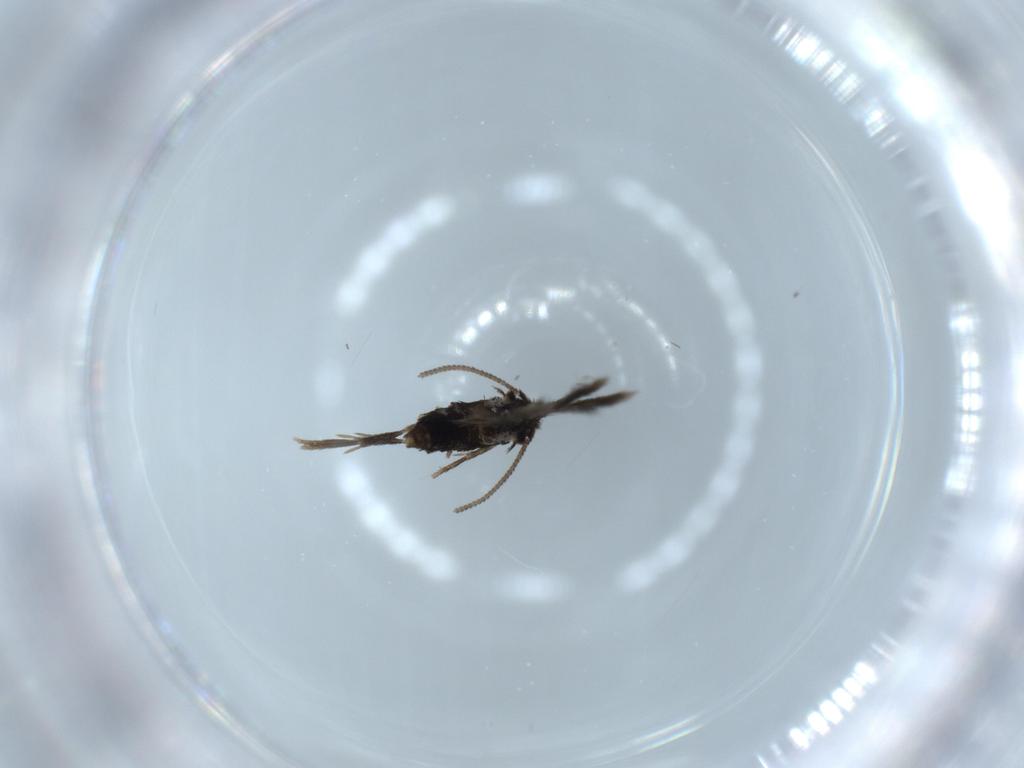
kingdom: Animalia
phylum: Arthropoda
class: Insecta
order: Lepidoptera
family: Nepticulidae
